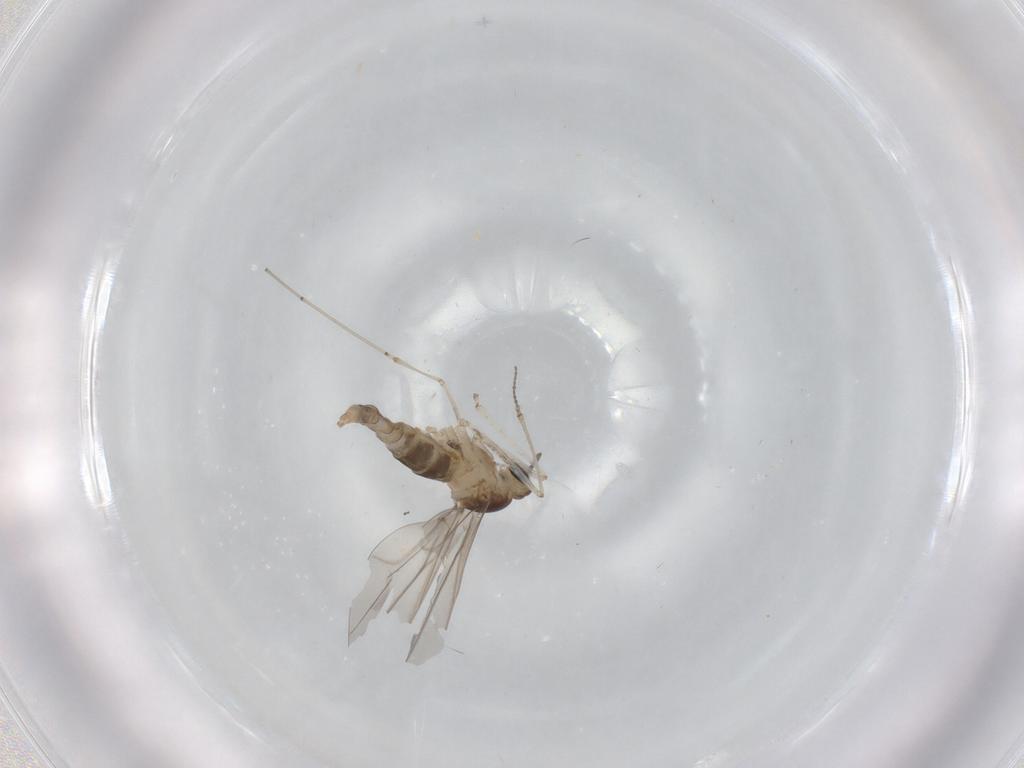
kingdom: Animalia
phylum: Arthropoda
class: Insecta
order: Diptera
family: Cecidomyiidae
